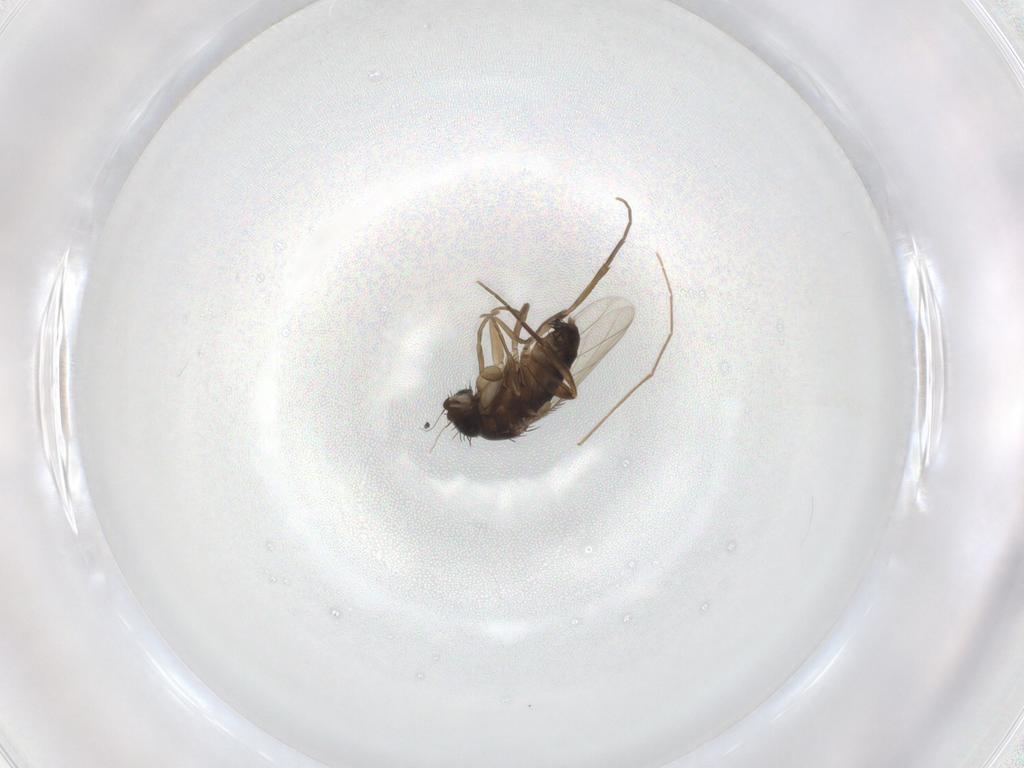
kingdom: Animalia
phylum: Arthropoda
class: Insecta
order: Diptera
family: Phoridae
